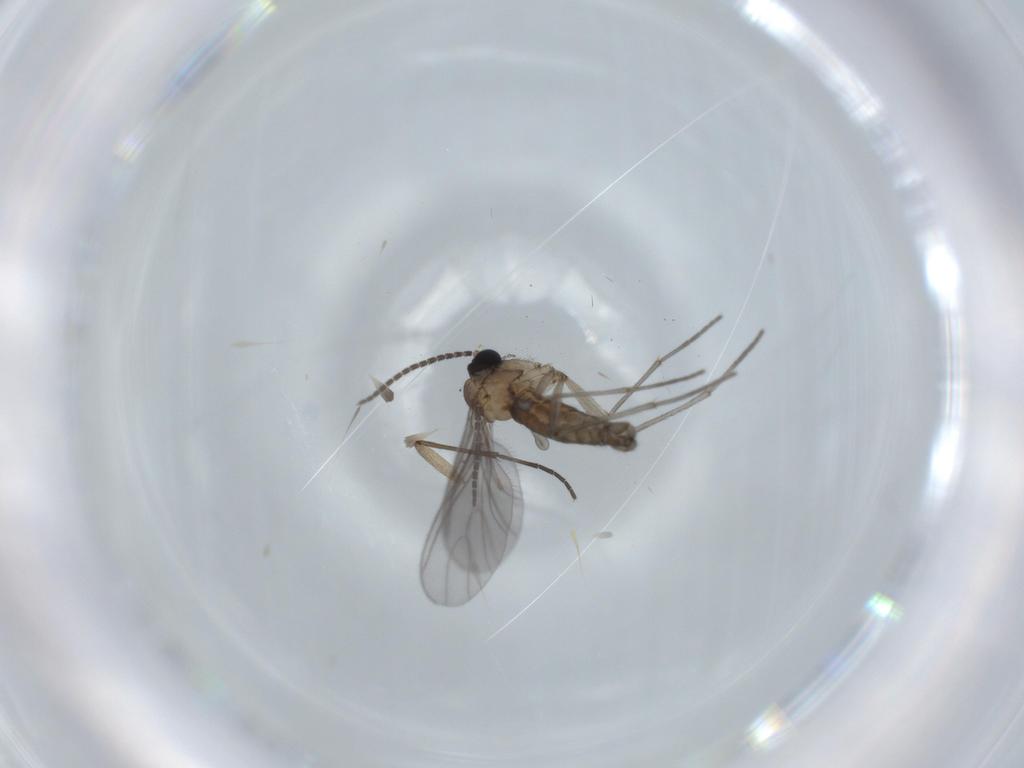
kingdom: Animalia
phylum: Arthropoda
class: Insecta
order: Diptera
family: Sciaridae
